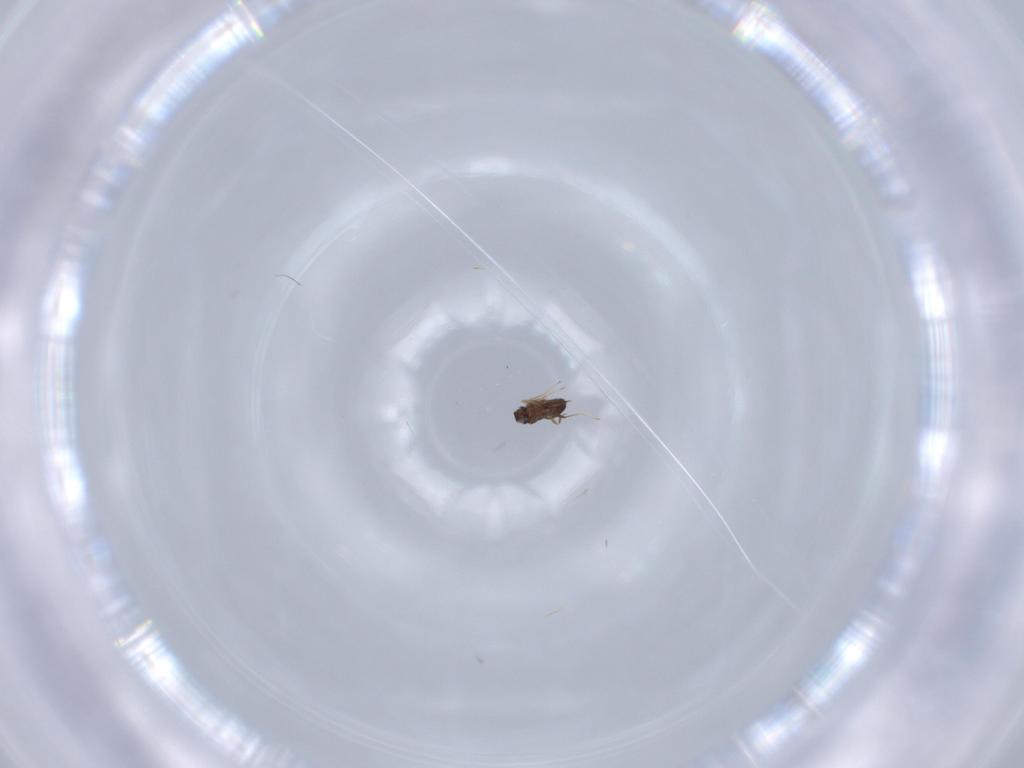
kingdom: Animalia
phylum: Arthropoda
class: Insecta
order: Hymenoptera
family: Mymaridae
